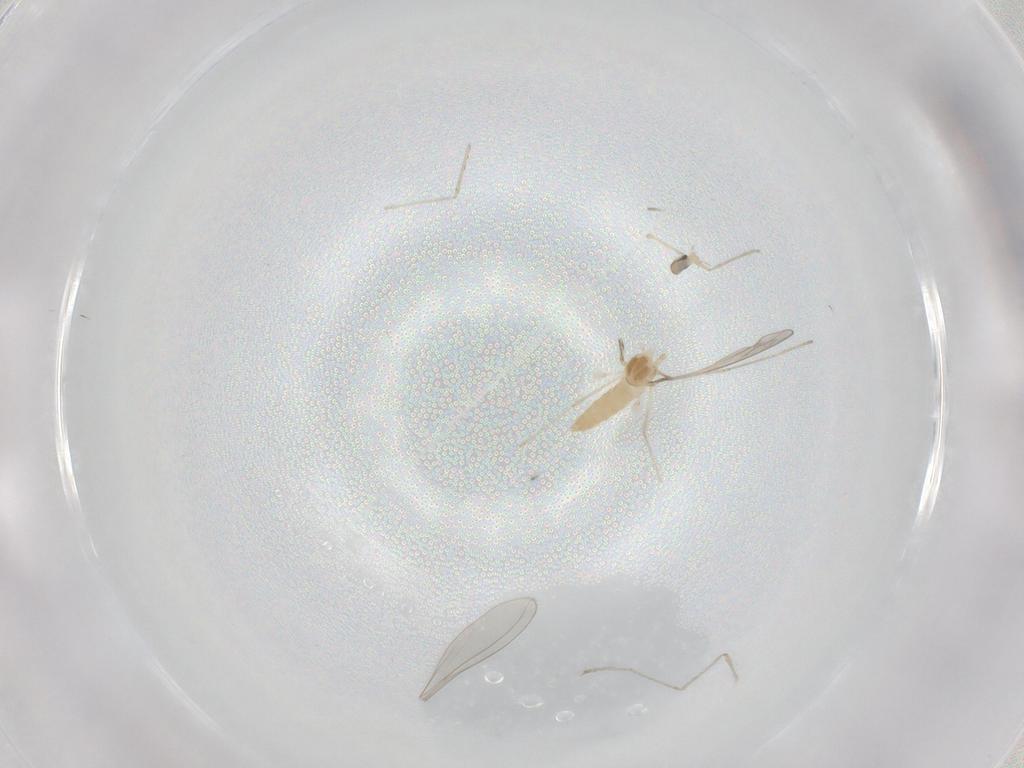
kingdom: Animalia
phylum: Arthropoda
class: Insecta
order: Diptera
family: Cecidomyiidae
